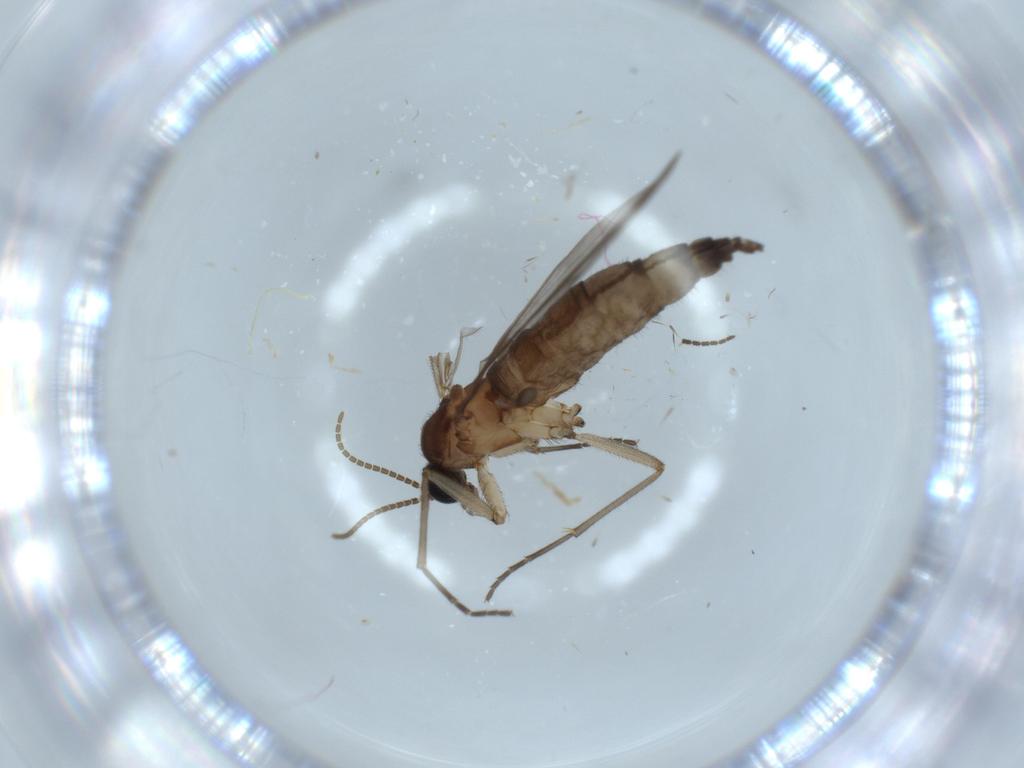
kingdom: Animalia
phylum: Arthropoda
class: Insecta
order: Diptera
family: Sciaridae
